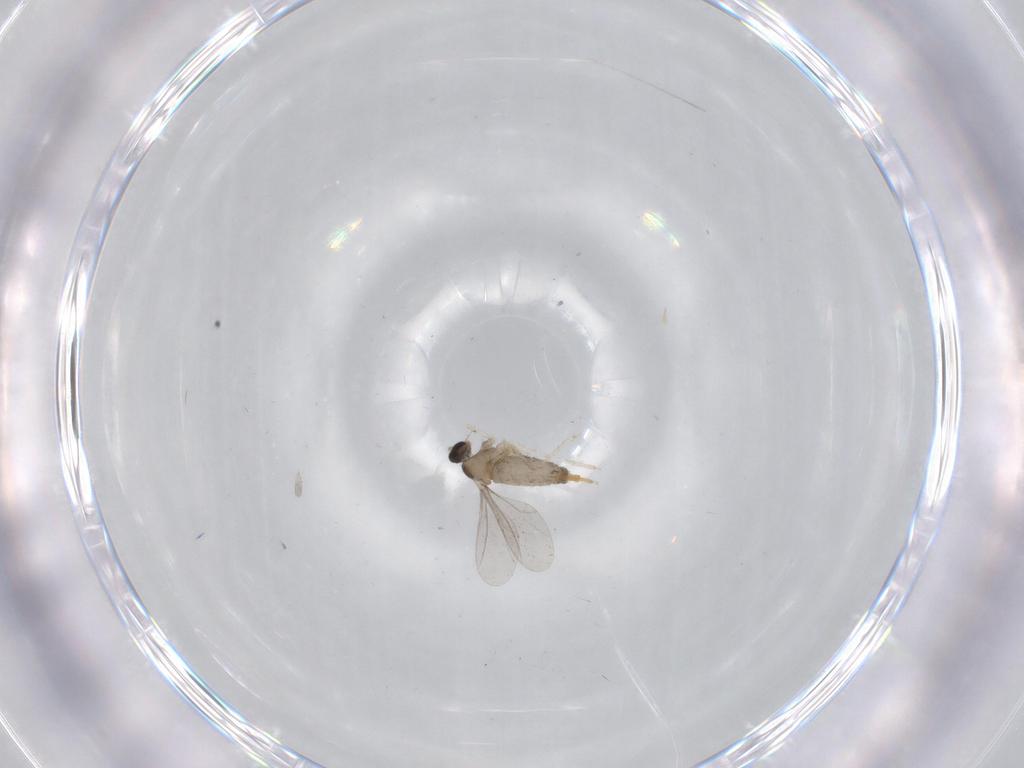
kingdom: Animalia
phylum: Arthropoda
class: Insecta
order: Diptera
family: Cecidomyiidae
